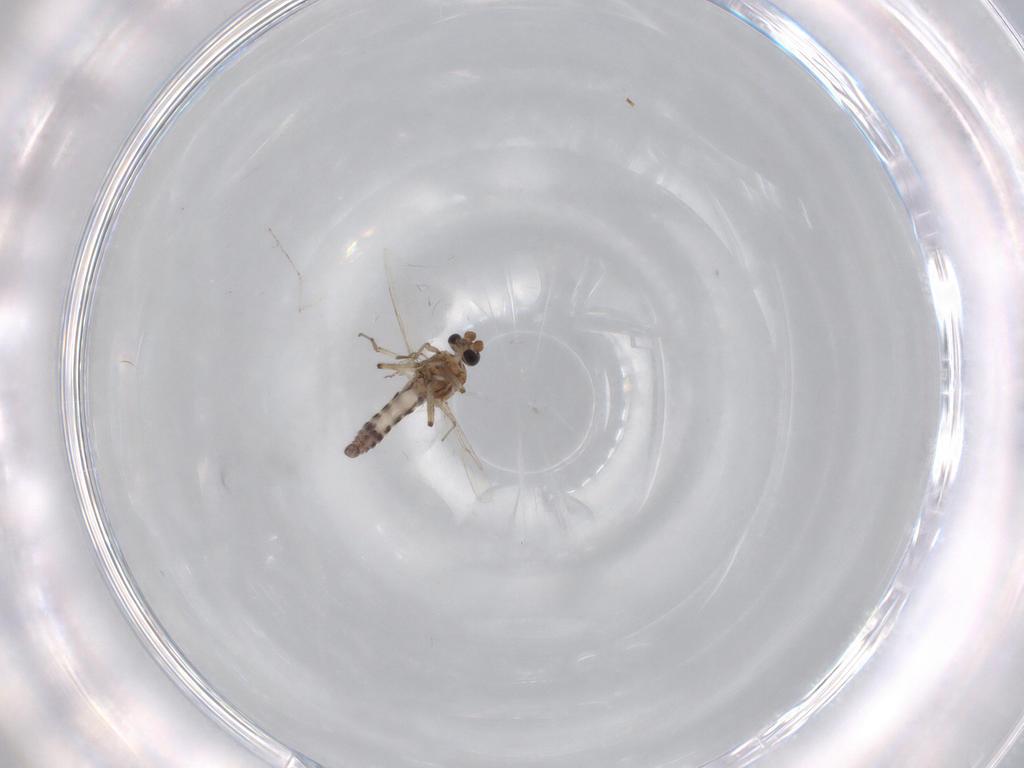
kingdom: Animalia
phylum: Arthropoda
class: Insecta
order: Diptera
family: Ceratopogonidae
